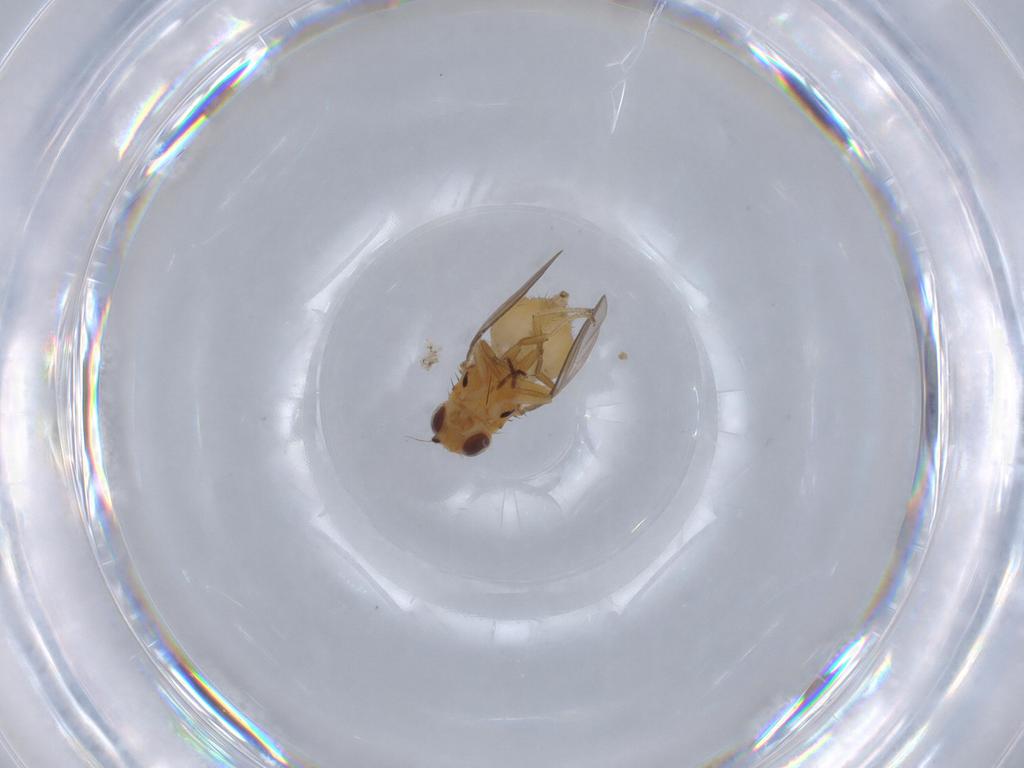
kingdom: Animalia
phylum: Arthropoda
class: Insecta
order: Diptera
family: Chloropidae
